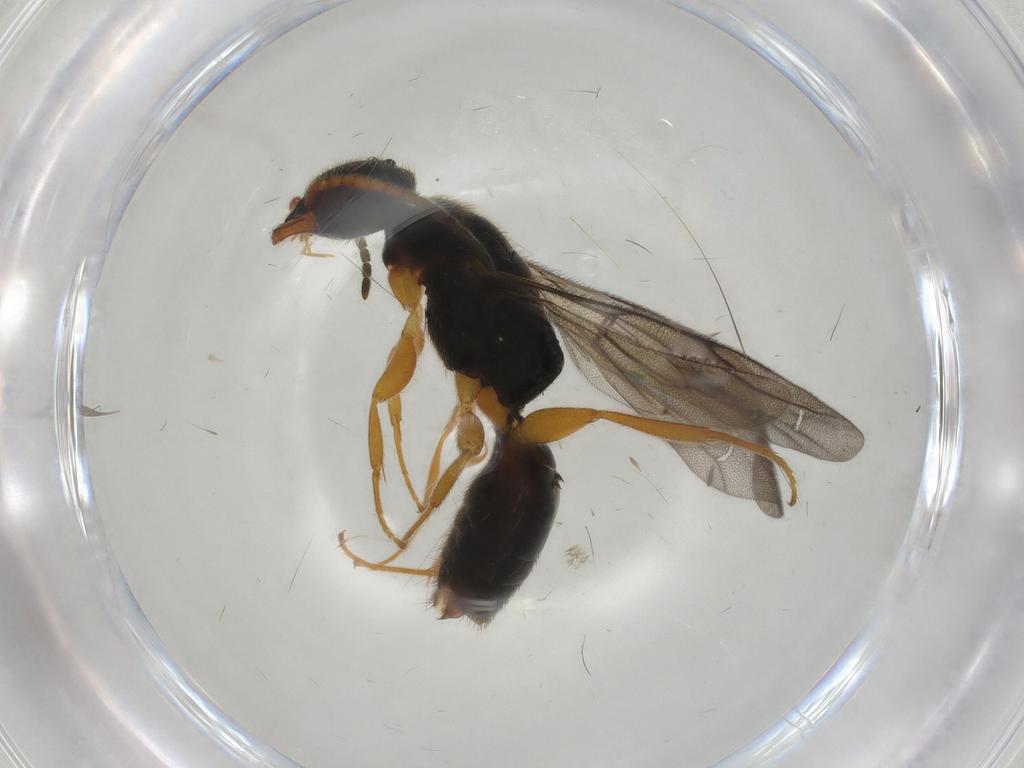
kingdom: Animalia
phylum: Arthropoda
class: Insecta
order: Hymenoptera
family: Bethylidae
